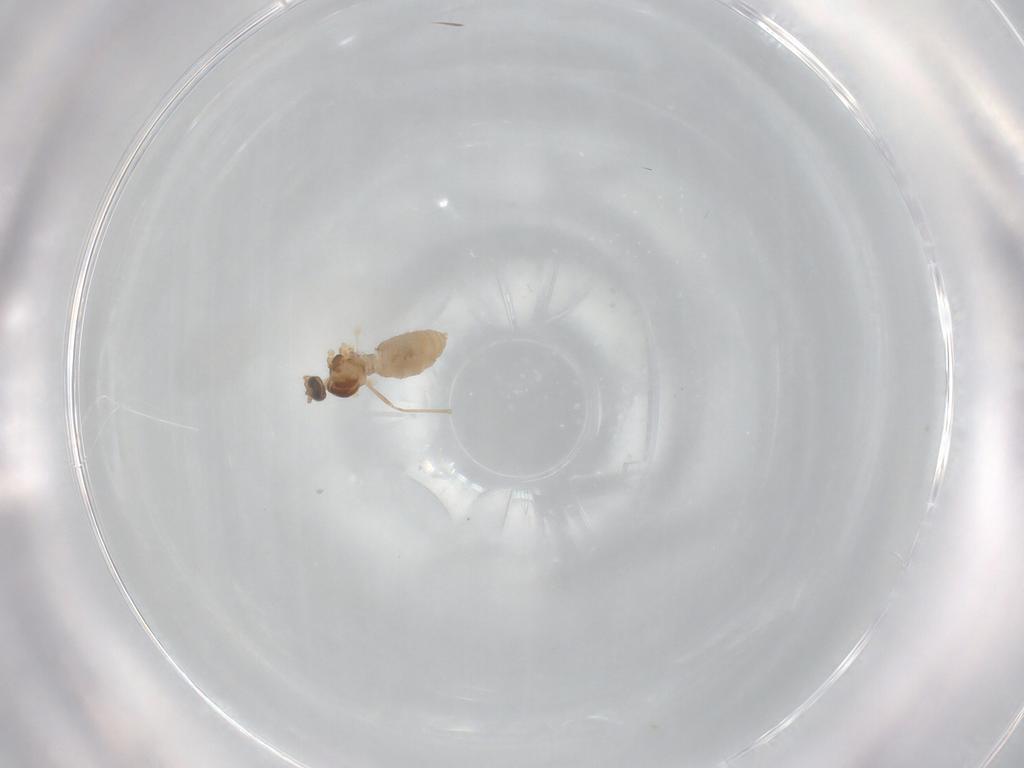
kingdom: Animalia
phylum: Arthropoda
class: Insecta
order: Diptera
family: Cecidomyiidae
